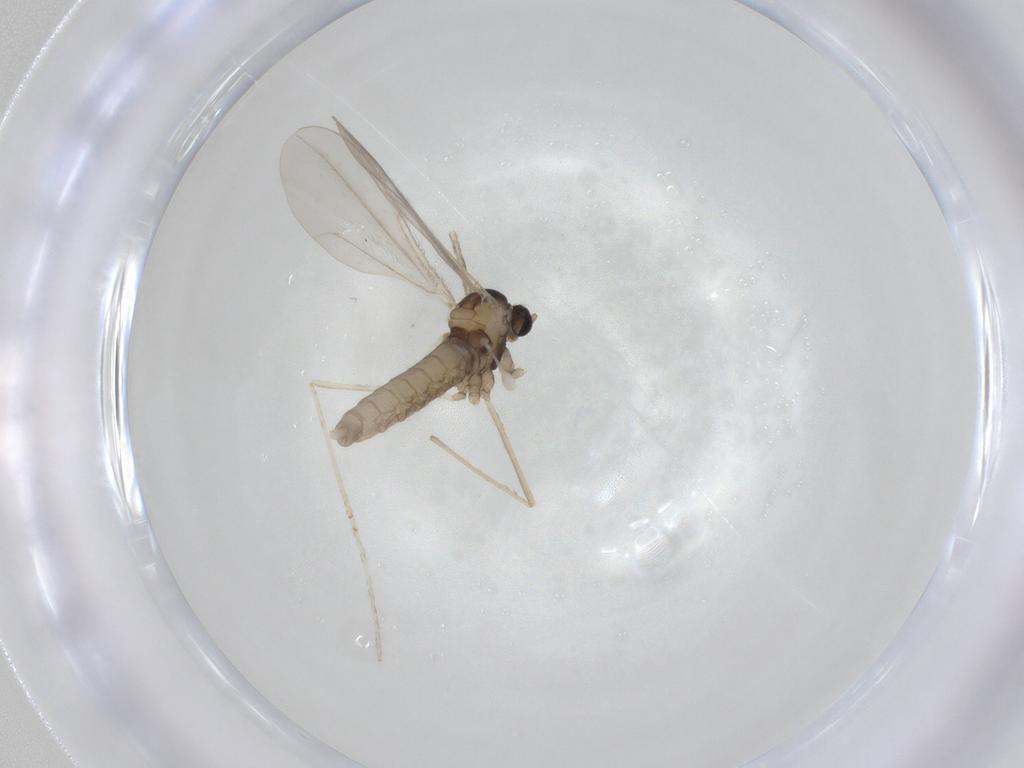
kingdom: Animalia
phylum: Arthropoda
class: Insecta
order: Diptera
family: Cecidomyiidae
